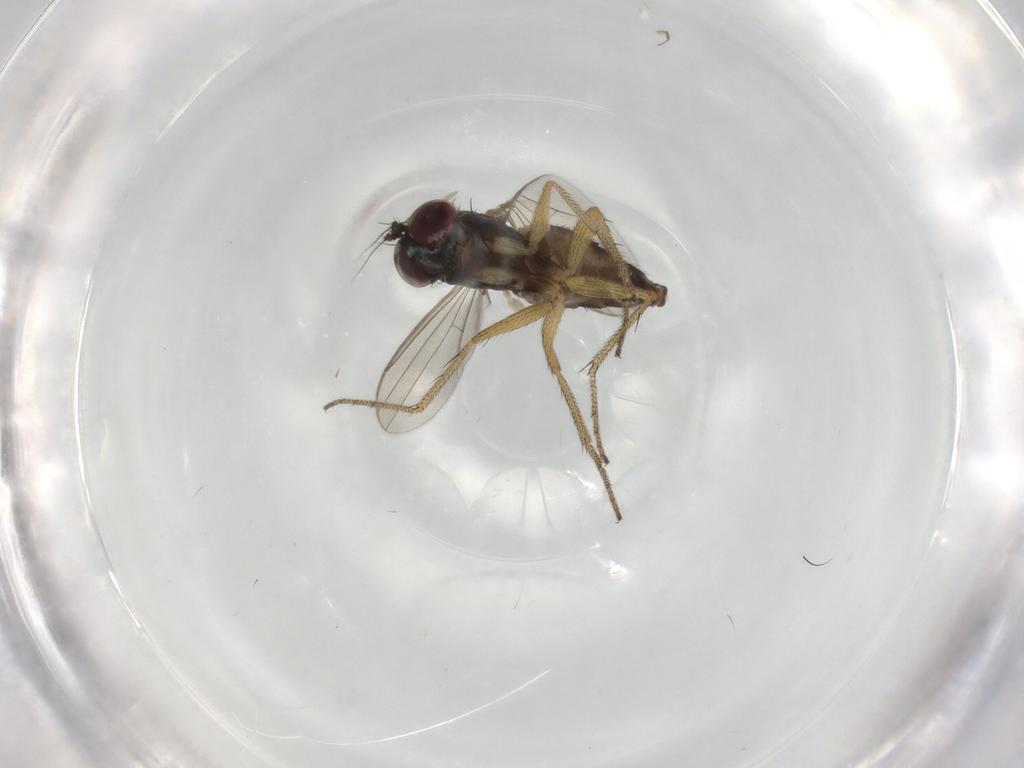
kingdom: Animalia
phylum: Arthropoda
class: Insecta
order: Diptera
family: Dolichopodidae
